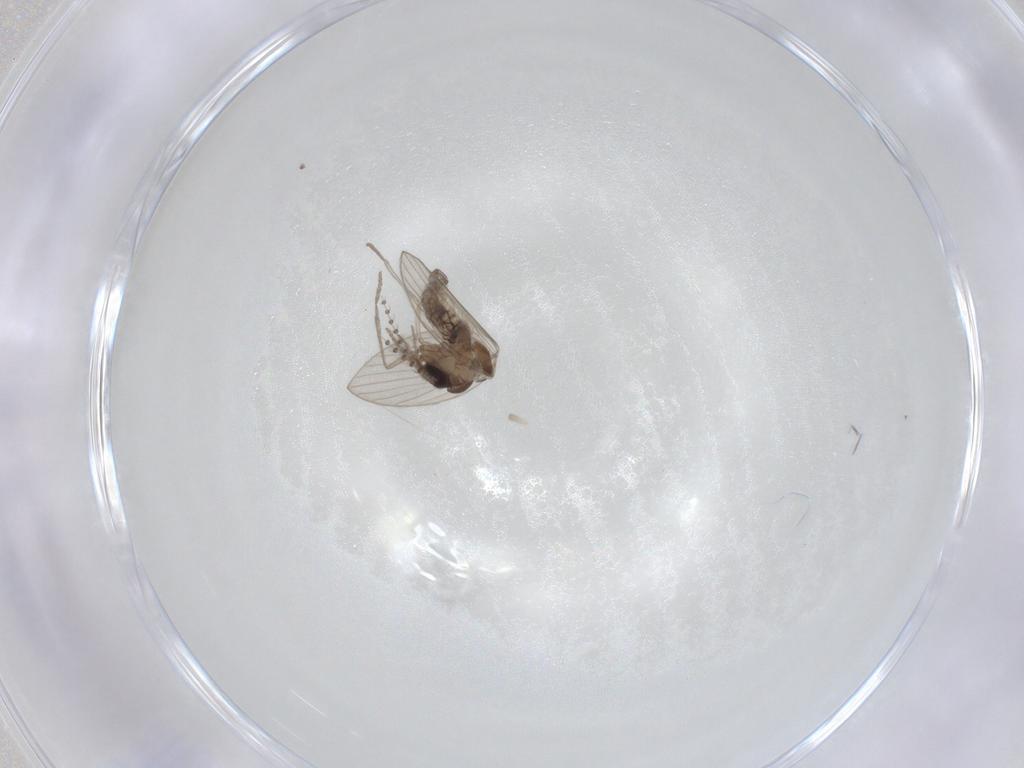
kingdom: Animalia
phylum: Arthropoda
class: Insecta
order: Diptera
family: Psychodidae
